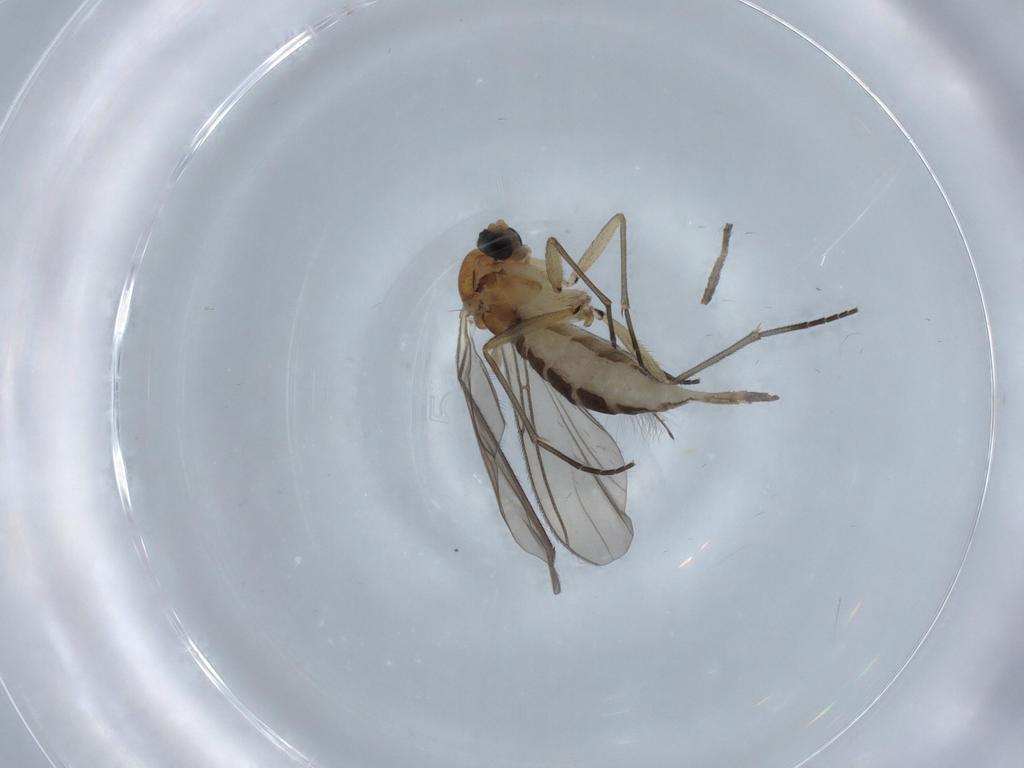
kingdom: Animalia
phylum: Arthropoda
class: Insecta
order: Diptera
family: Sciaridae
